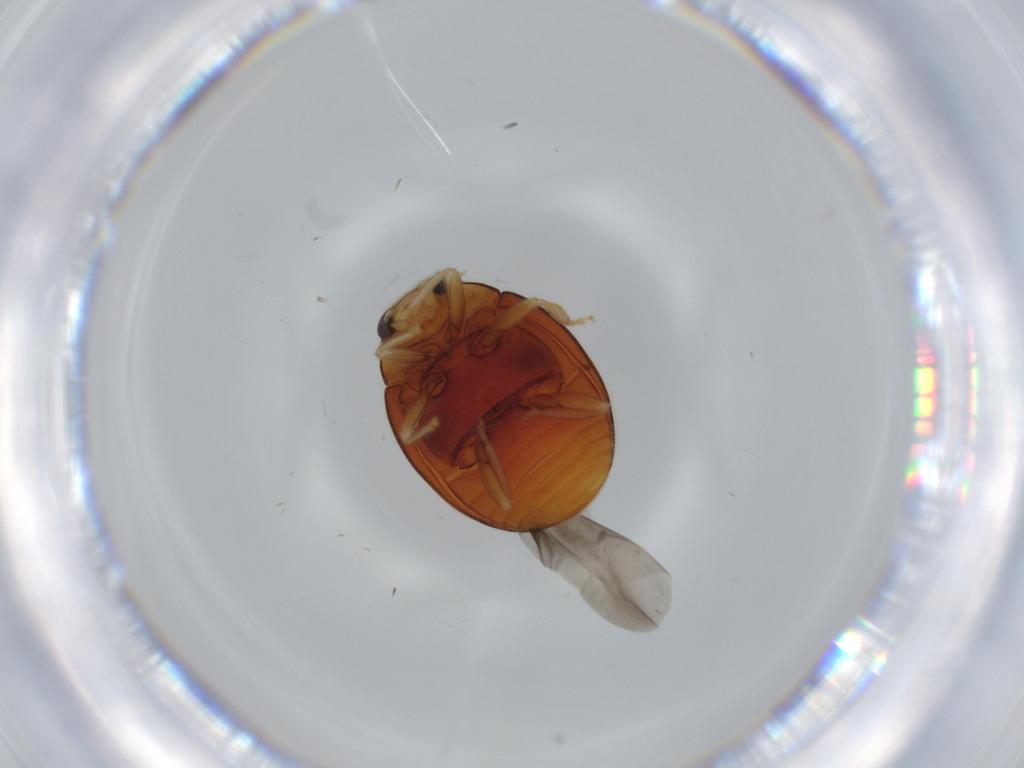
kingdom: Animalia
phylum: Arthropoda
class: Insecta
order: Coleoptera
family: Coccinellidae
